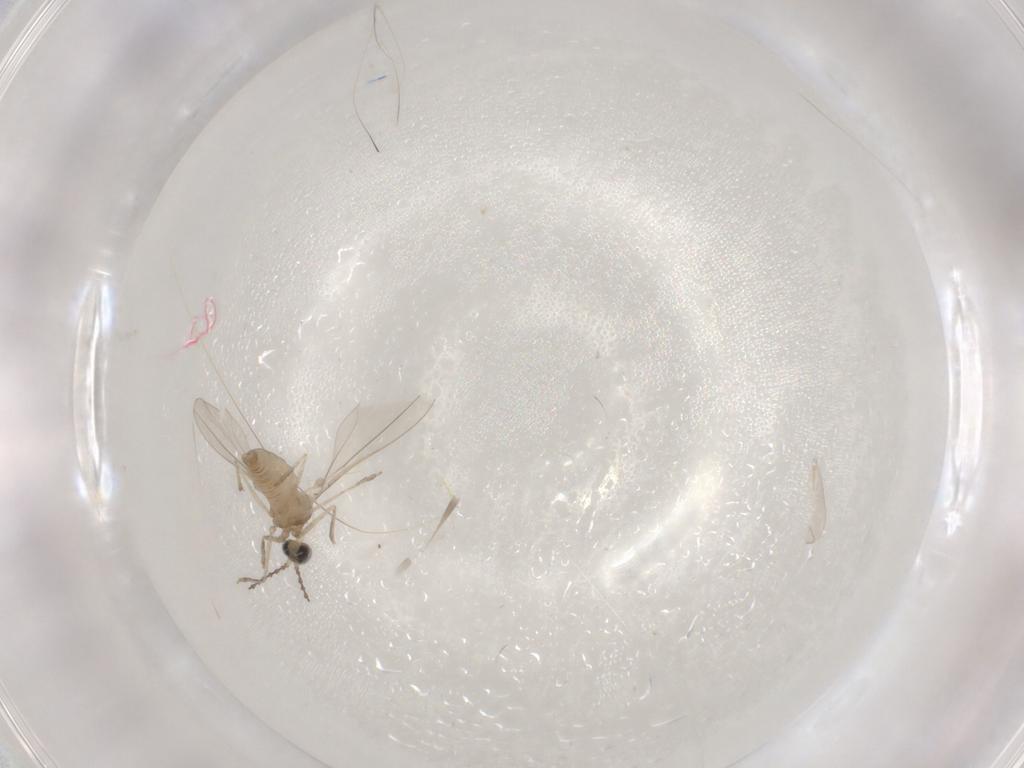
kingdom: Animalia
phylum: Arthropoda
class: Insecta
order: Diptera
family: Cecidomyiidae
